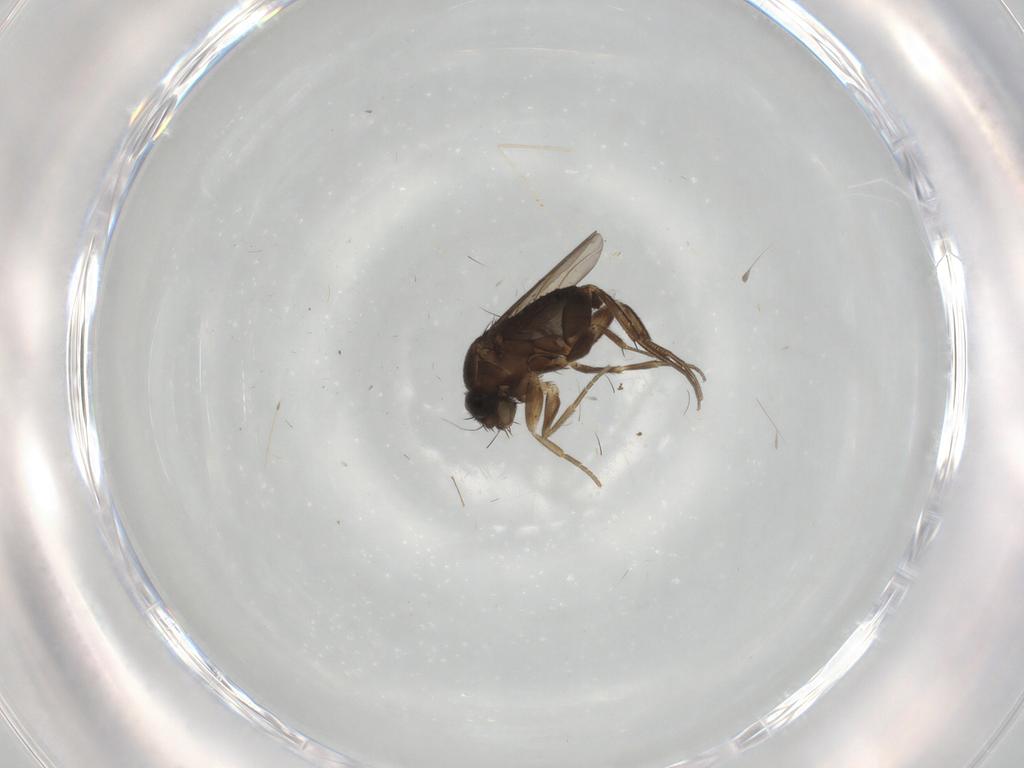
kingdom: Animalia
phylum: Arthropoda
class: Insecta
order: Diptera
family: Phoridae
